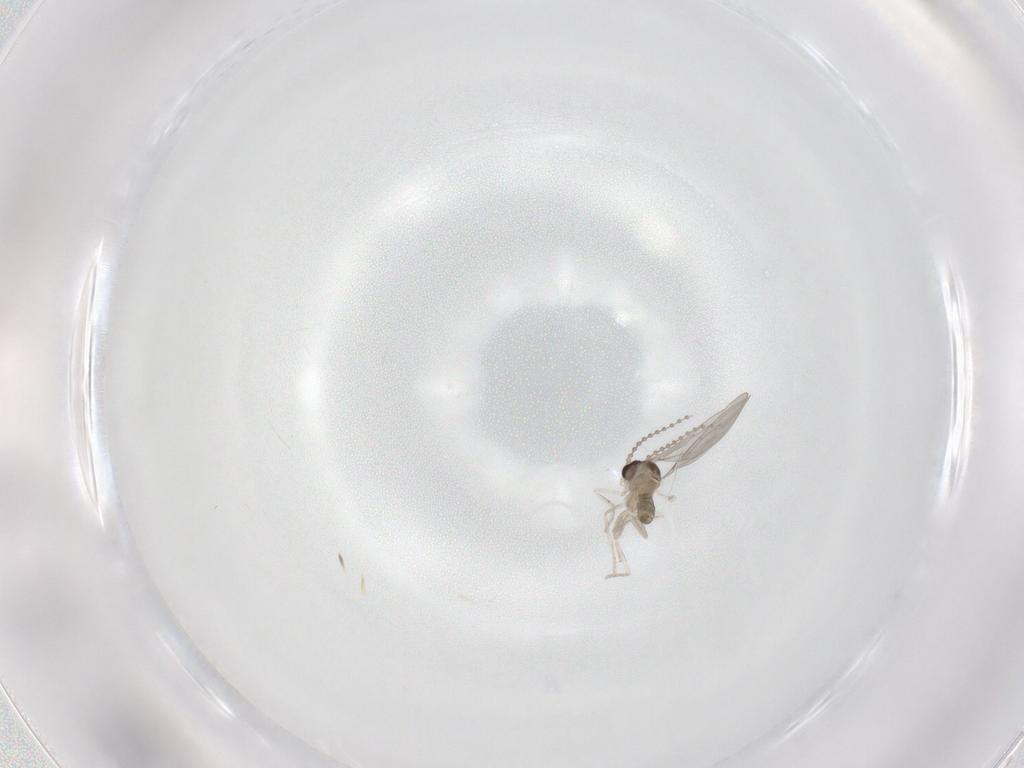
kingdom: Animalia
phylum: Arthropoda
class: Insecta
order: Diptera
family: Cecidomyiidae
